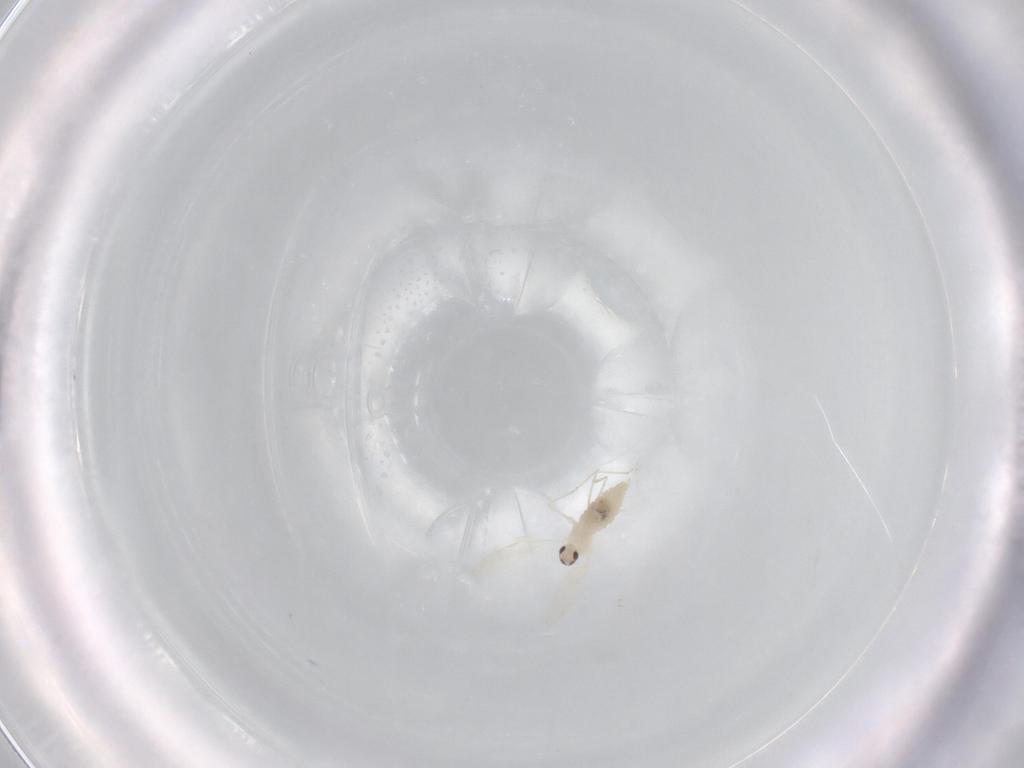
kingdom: Animalia
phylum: Arthropoda
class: Insecta
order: Diptera
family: Cecidomyiidae
